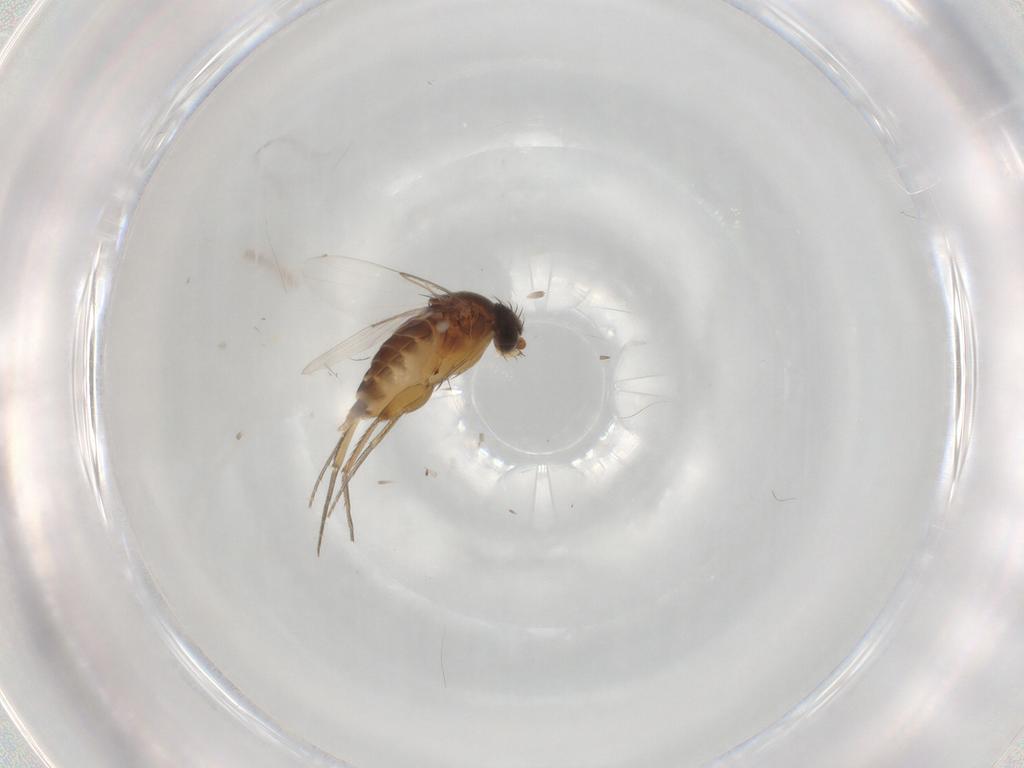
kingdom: Animalia
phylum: Arthropoda
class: Insecta
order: Diptera
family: Phoridae
